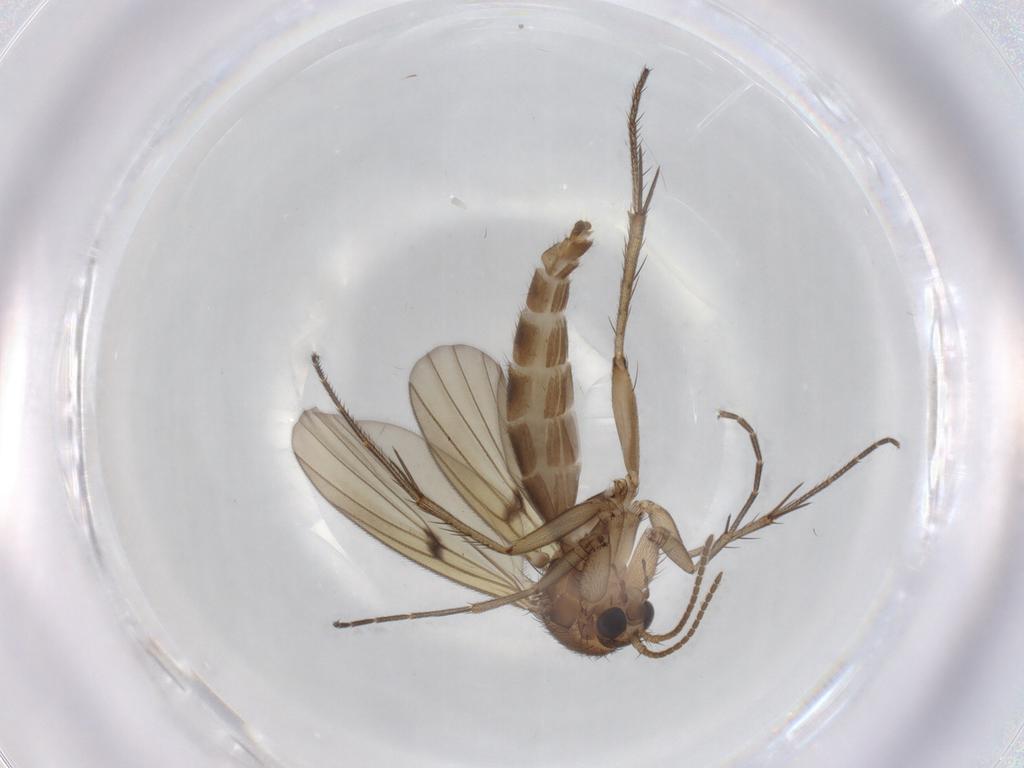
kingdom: Animalia
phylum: Arthropoda
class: Insecta
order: Diptera
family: Mycetophilidae
